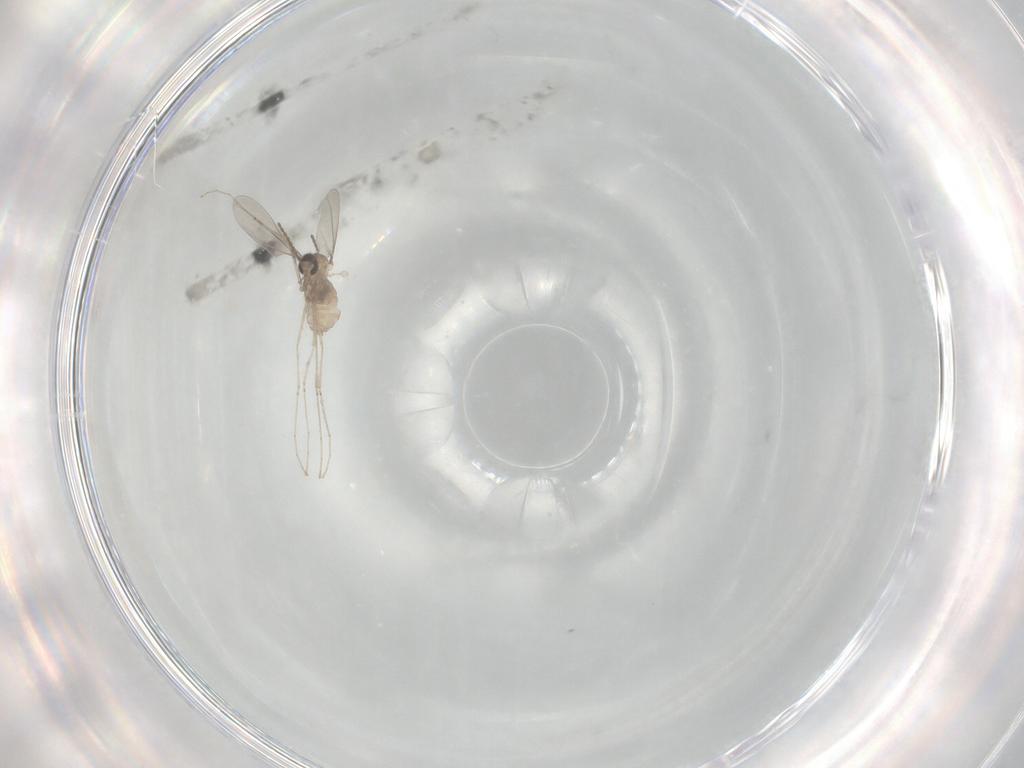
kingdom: Animalia
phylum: Arthropoda
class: Insecta
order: Diptera
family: Cecidomyiidae
